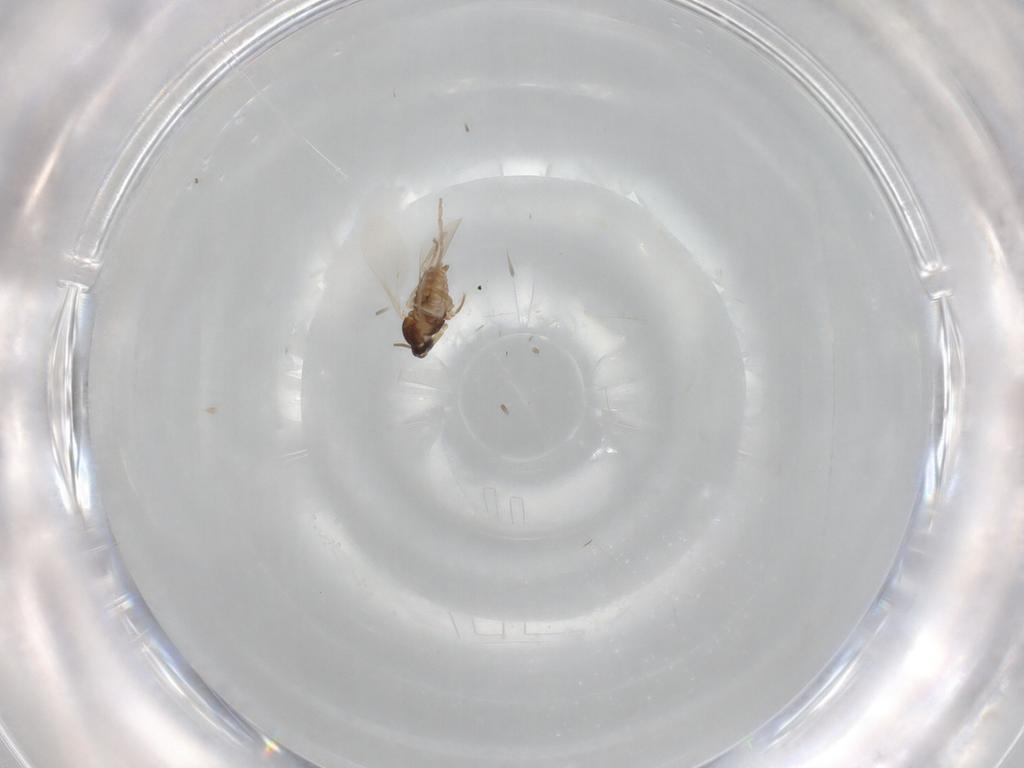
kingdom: Animalia
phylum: Arthropoda
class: Insecta
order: Diptera
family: Cecidomyiidae
